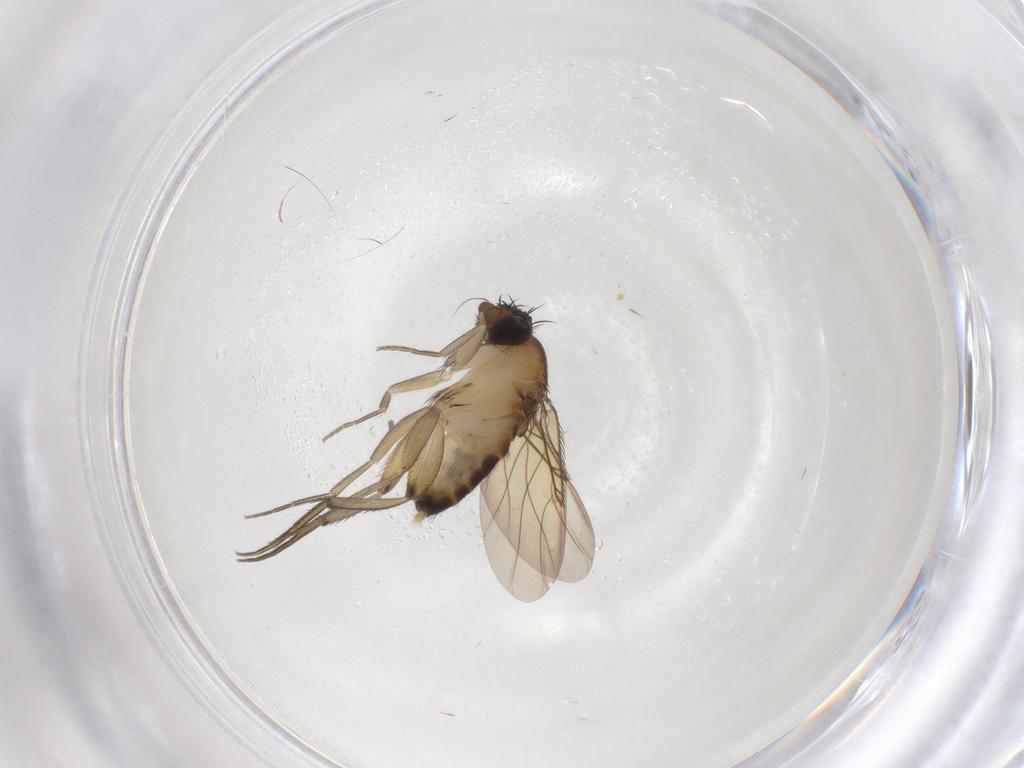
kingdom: Animalia
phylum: Arthropoda
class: Insecta
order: Diptera
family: Phoridae
